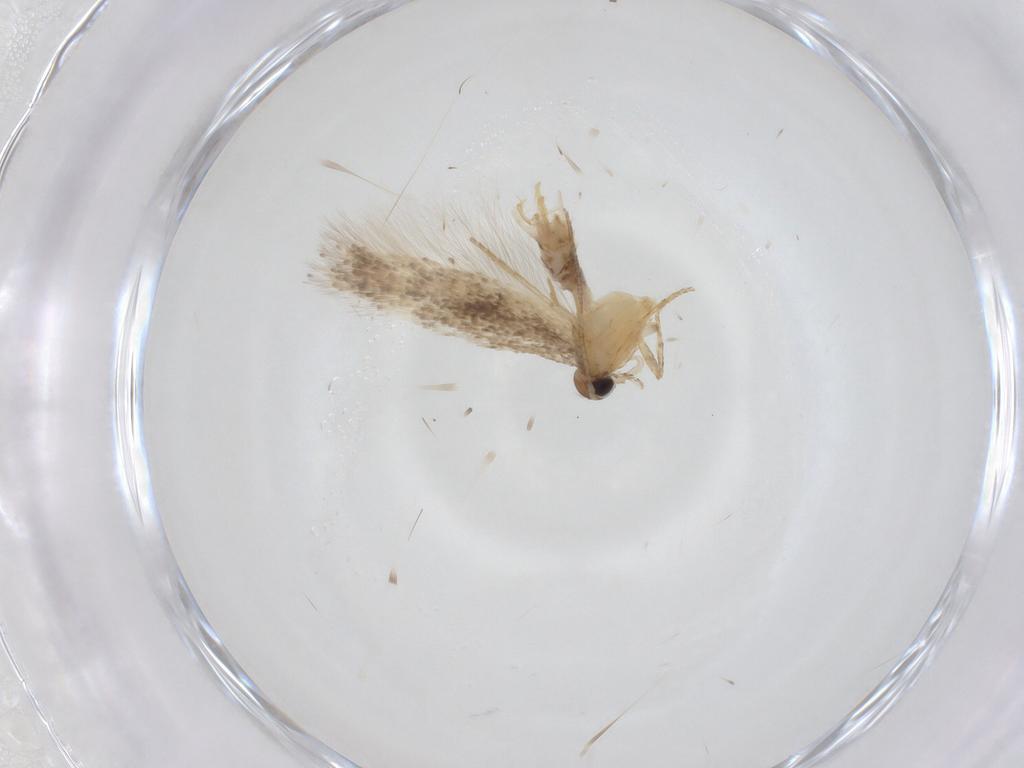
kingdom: Animalia
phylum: Arthropoda
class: Insecta
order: Lepidoptera
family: Gelechiidae
